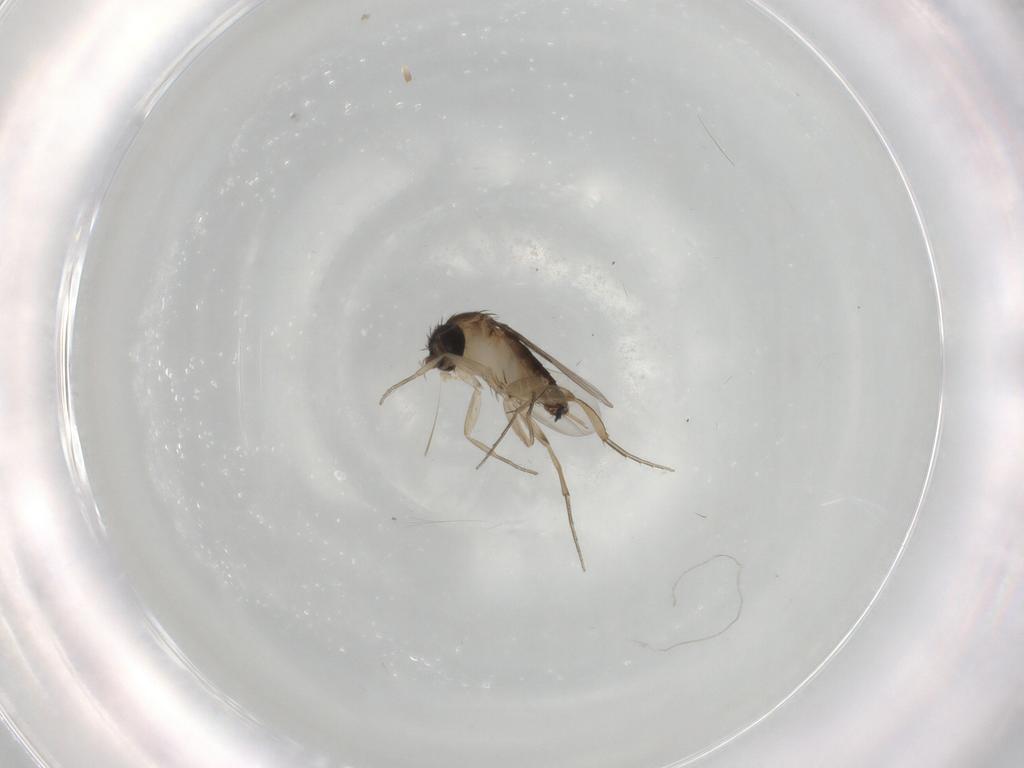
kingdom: Animalia
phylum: Arthropoda
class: Insecta
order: Diptera
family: Phoridae
